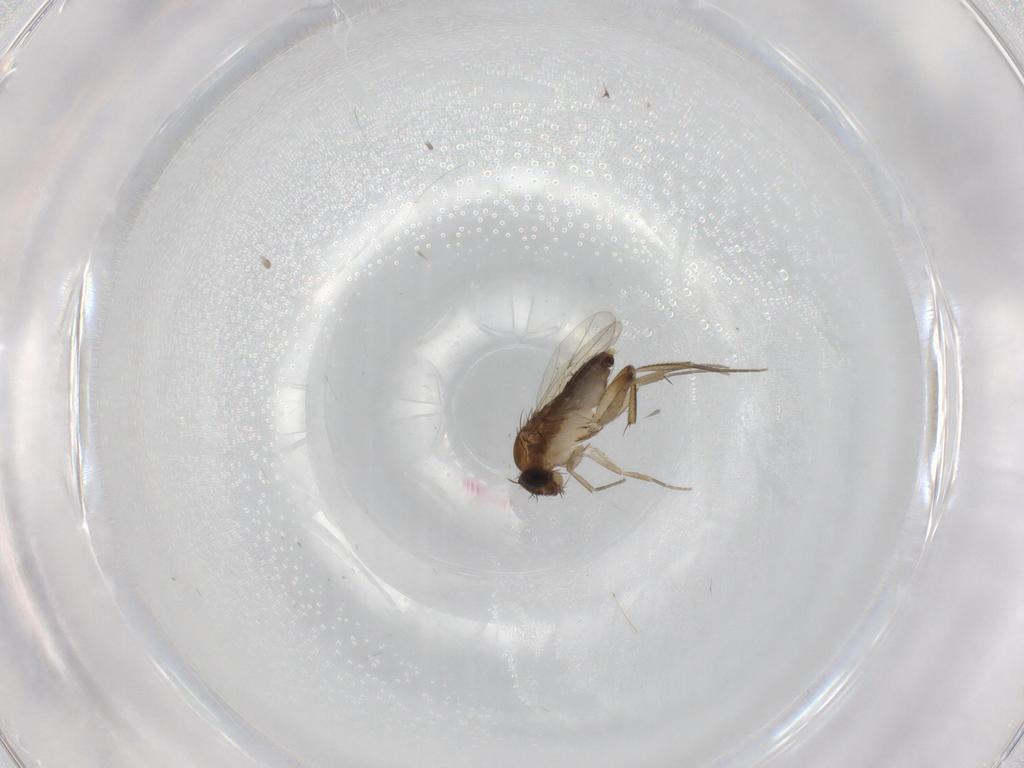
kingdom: Animalia
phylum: Arthropoda
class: Insecta
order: Diptera
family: Phoridae
